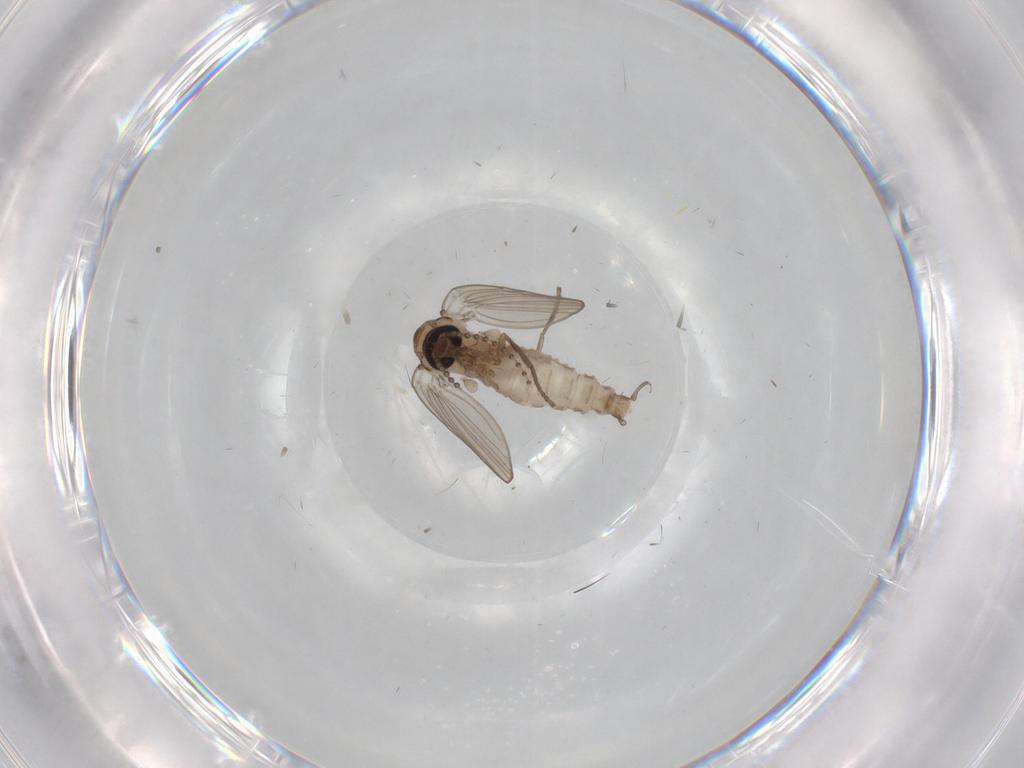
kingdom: Animalia
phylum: Arthropoda
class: Insecta
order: Diptera
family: Psychodidae
